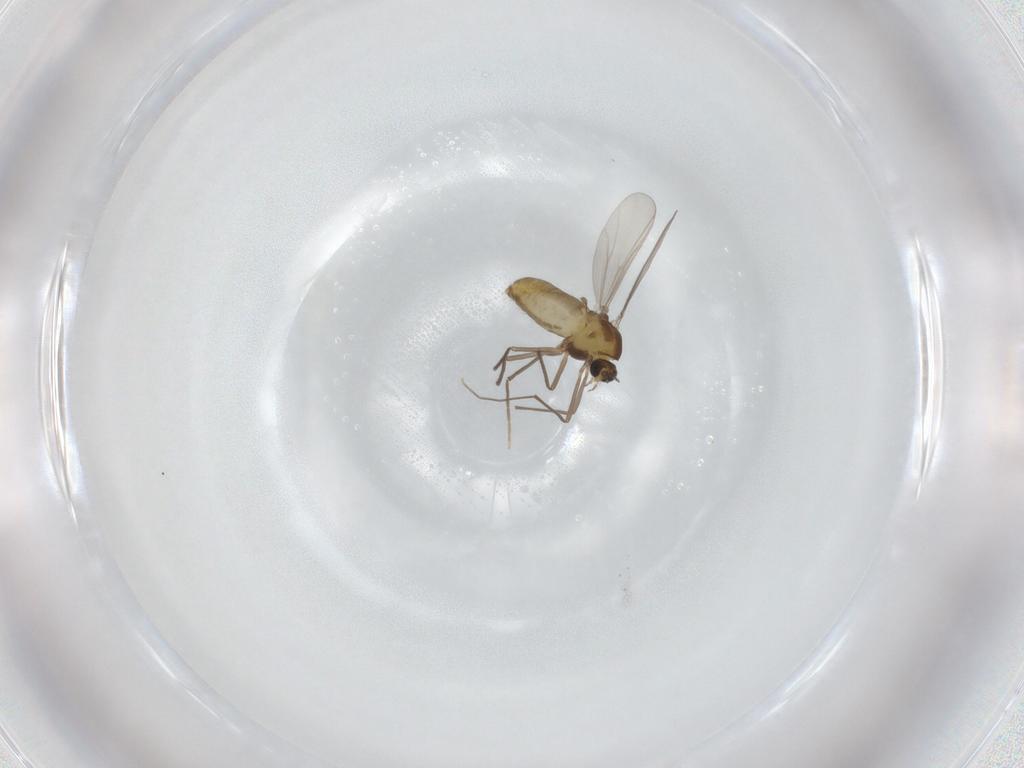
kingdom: Animalia
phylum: Arthropoda
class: Insecta
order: Diptera
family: Chironomidae
